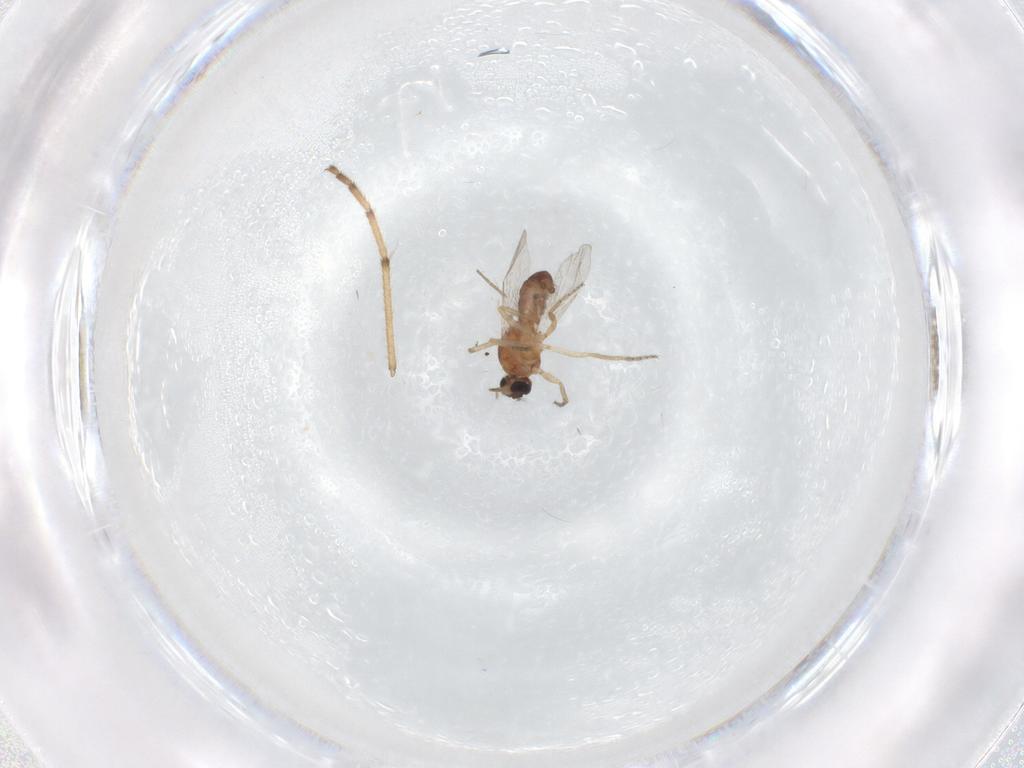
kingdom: Animalia
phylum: Arthropoda
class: Insecta
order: Diptera
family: Ceratopogonidae
